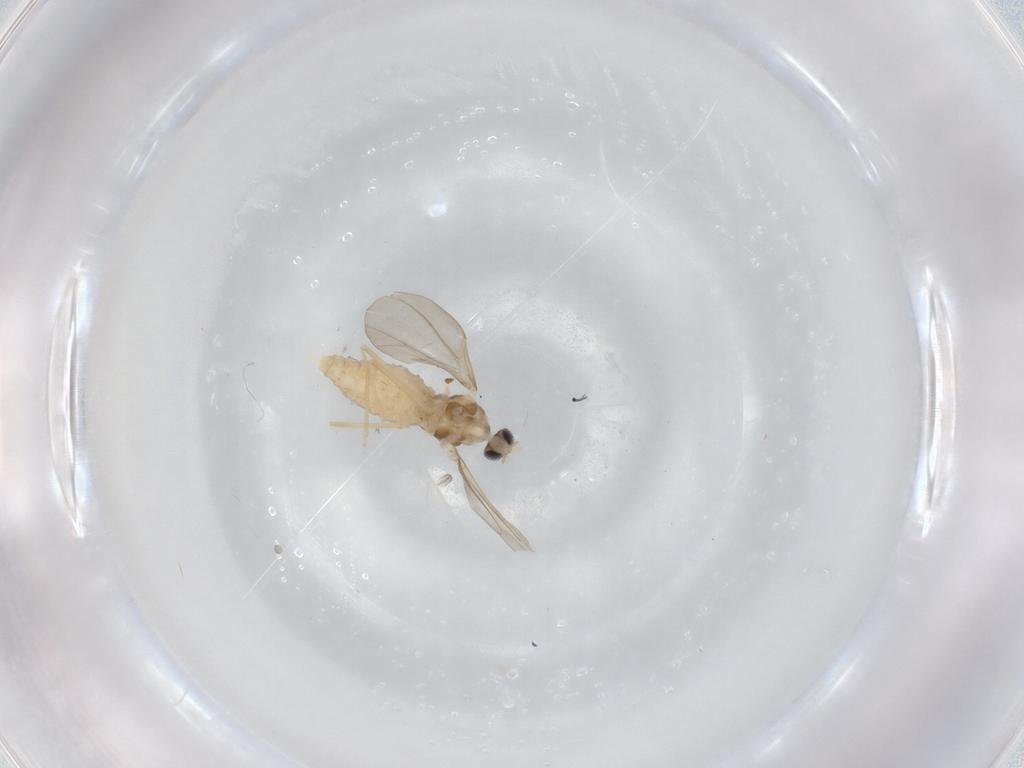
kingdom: Animalia
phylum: Arthropoda
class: Insecta
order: Diptera
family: Cecidomyiidae
